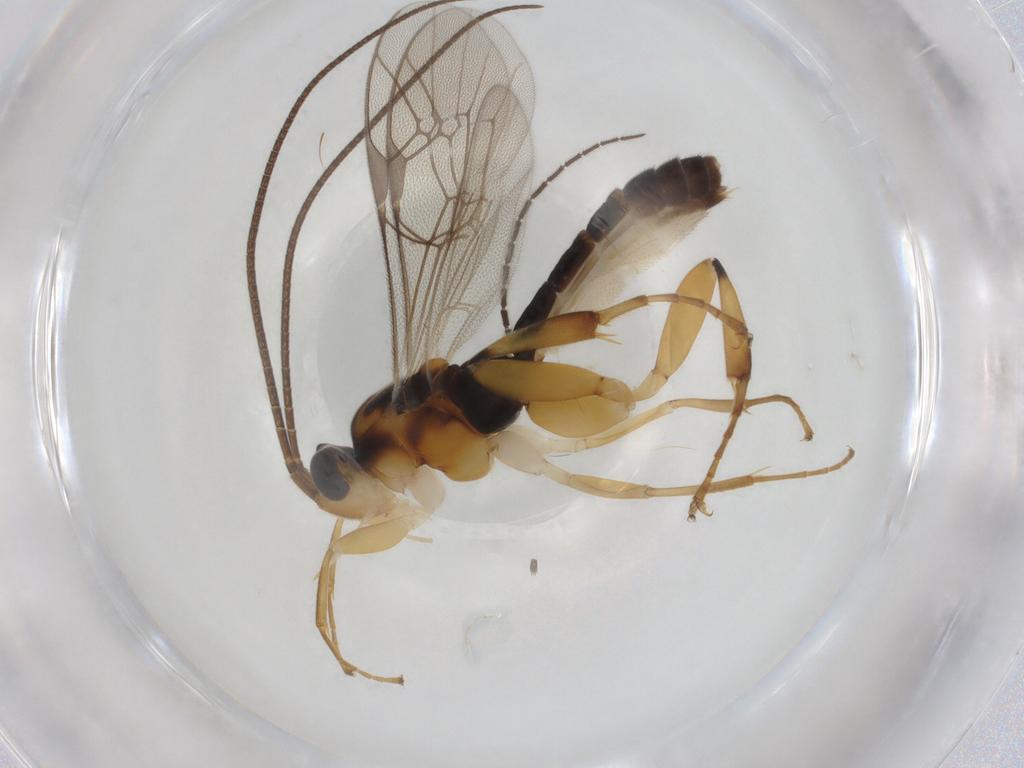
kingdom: Animalia
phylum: Arthropoda
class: Insecta
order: Hymenoptera
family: Ichneumonidae
